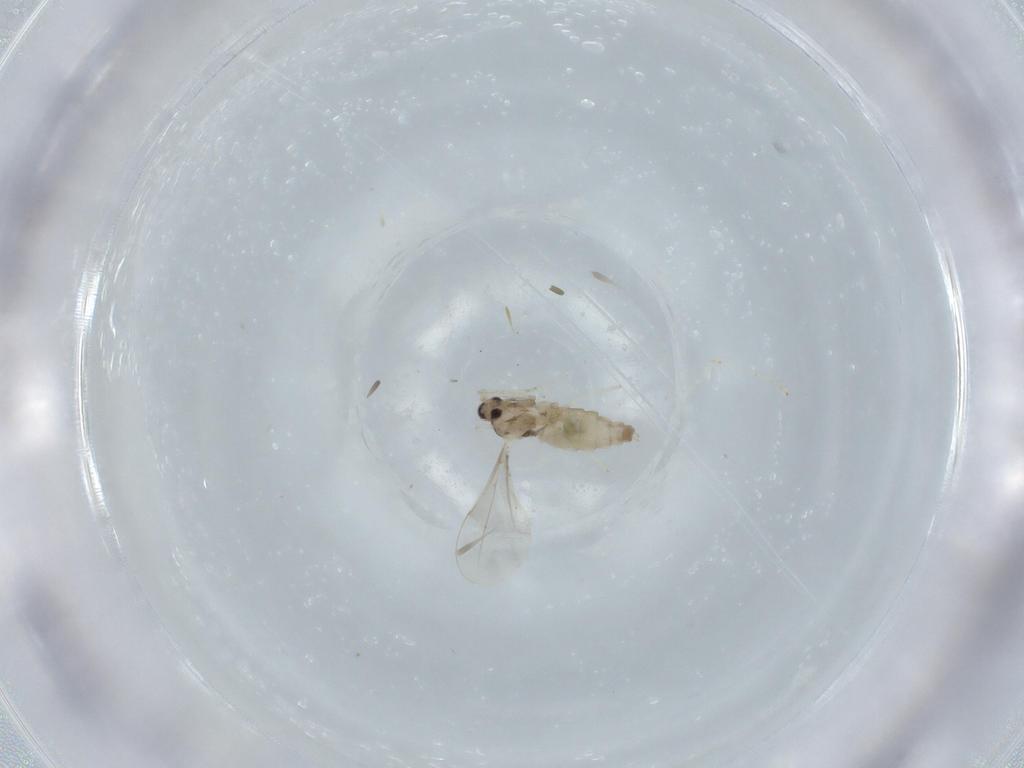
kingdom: Animalia
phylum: Arthropoda
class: Insecta
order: Diptera
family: Cecidomyiidae
